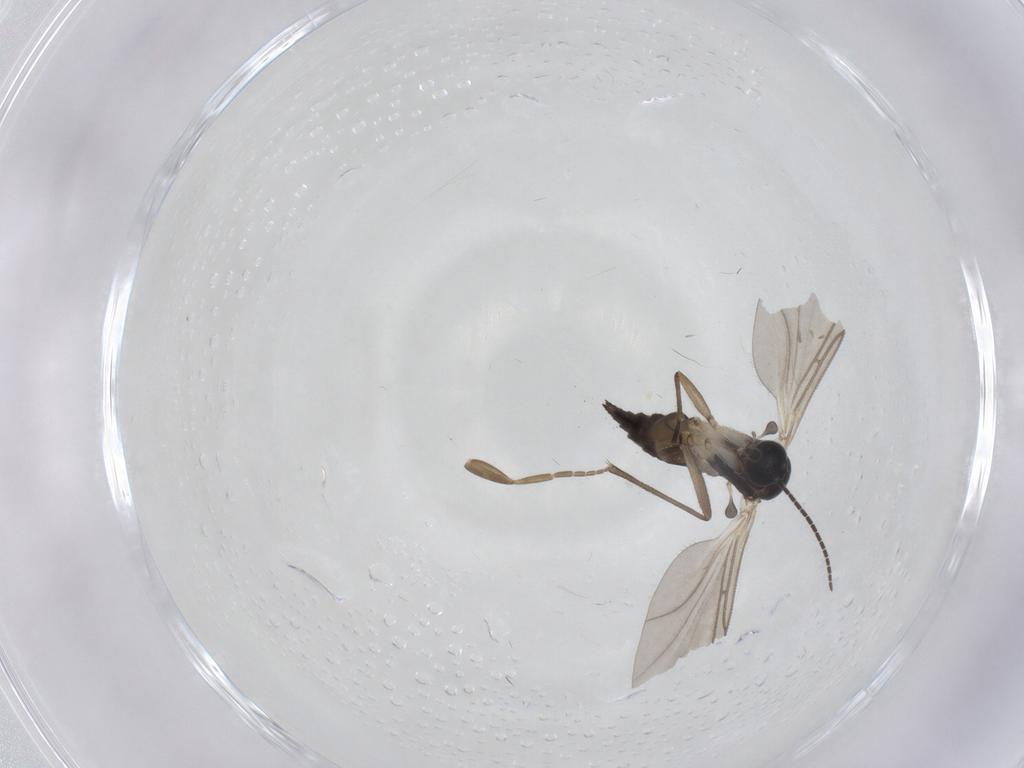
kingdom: Animalia
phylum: Arthropoda
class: Insecta
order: Diptera
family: Sciaridae
